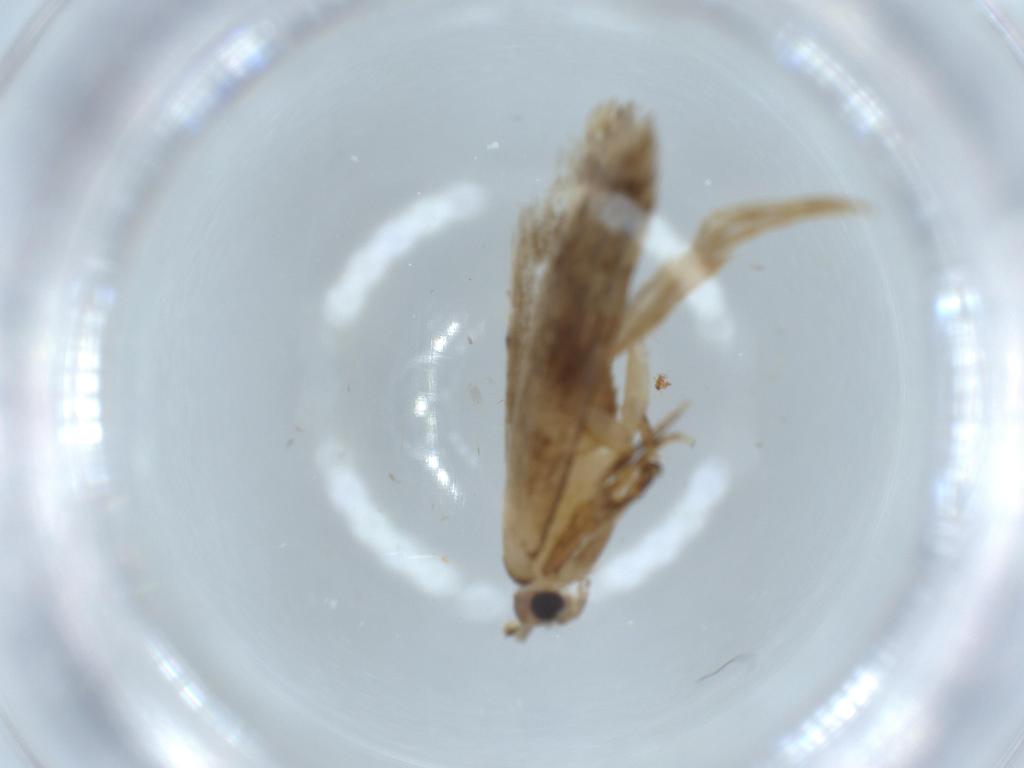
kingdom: Animalia
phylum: Arthropoda
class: Insecta
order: Lepidoptera
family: Tineidae
